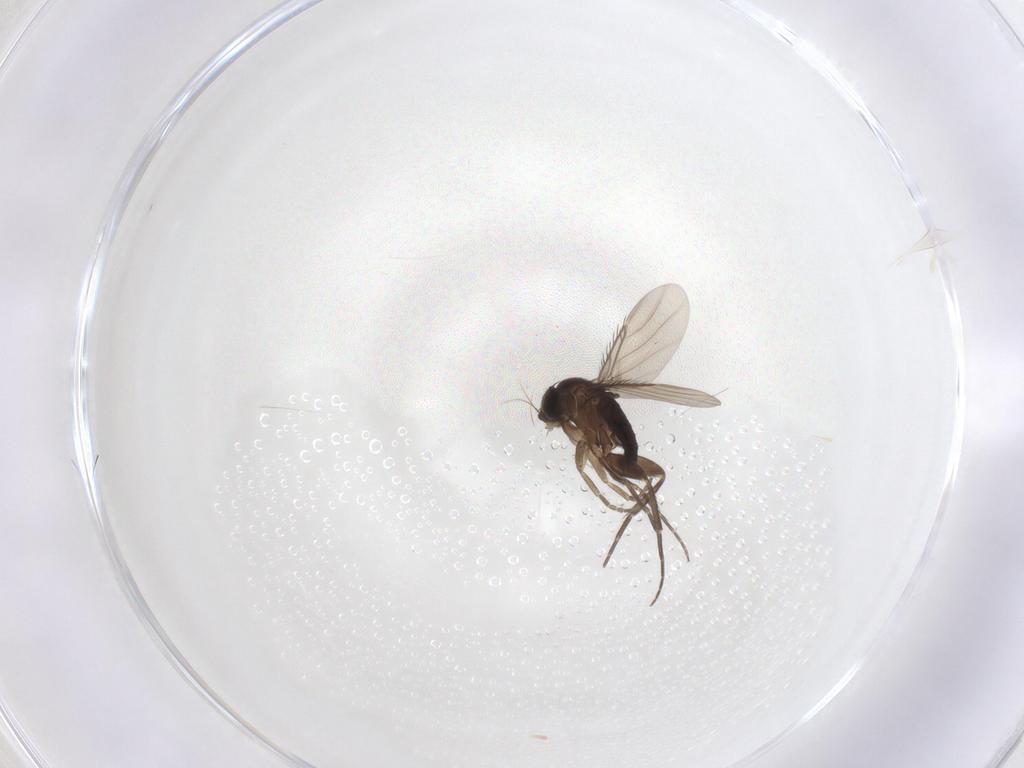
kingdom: Animalia
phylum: Arthropoda
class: Insecta
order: Diptera
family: Phoridae
